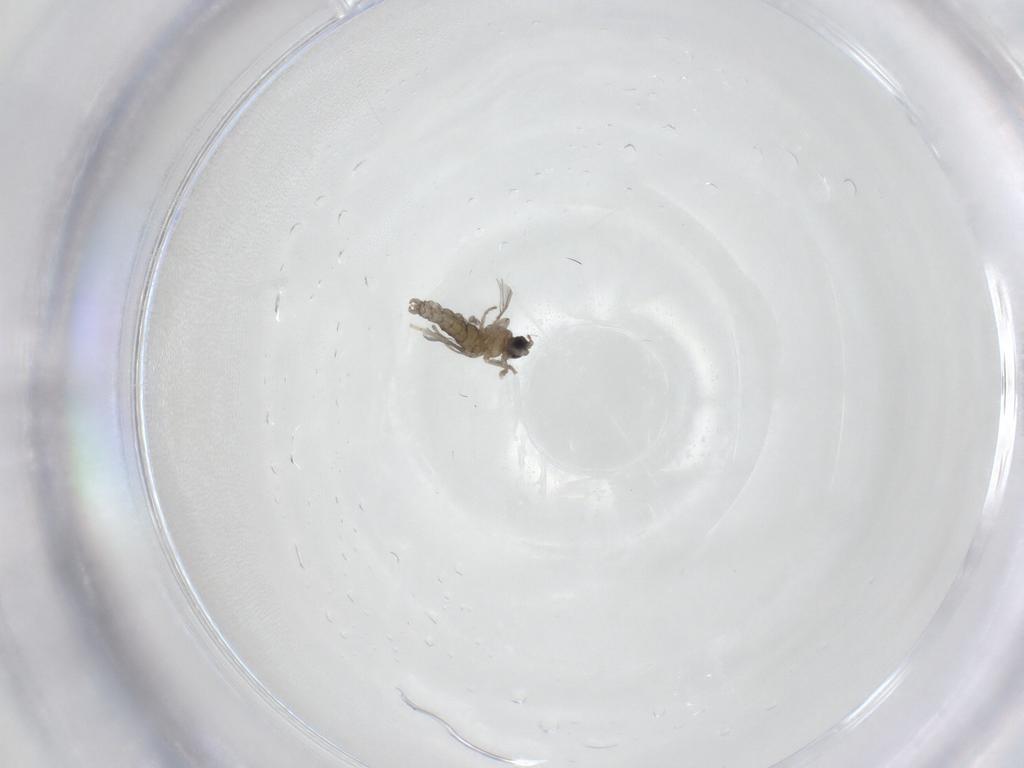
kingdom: Animalia
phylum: Arthropoda
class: Insecta
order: Diptera
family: Cecidomyiidae
